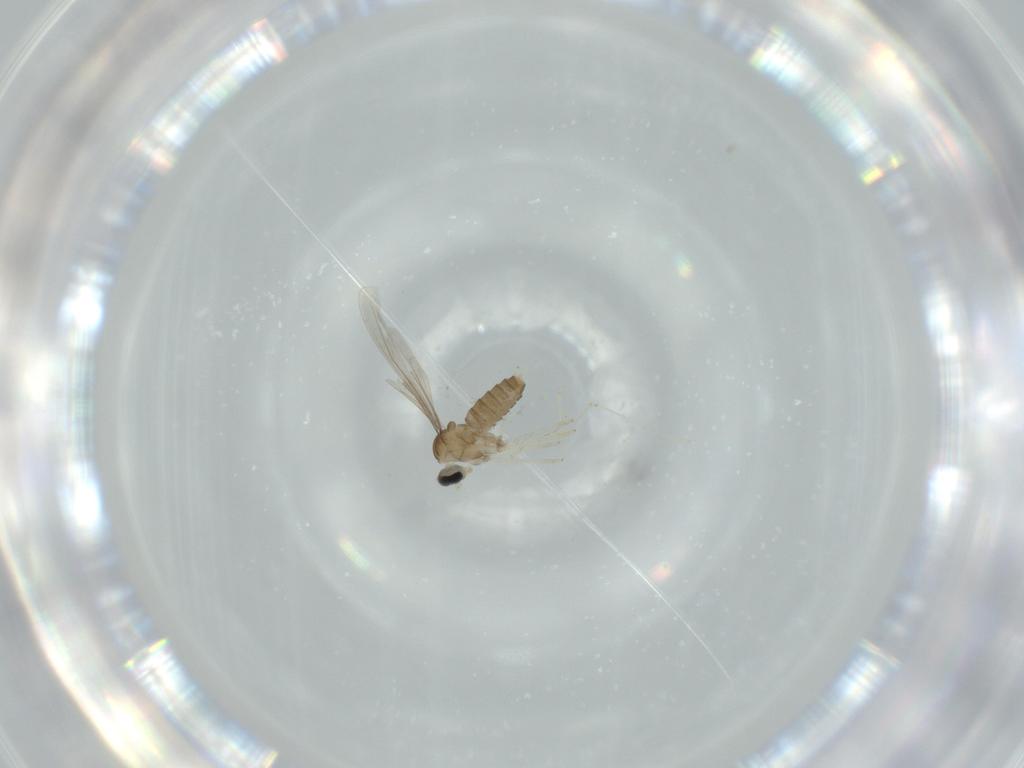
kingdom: Animalia
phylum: Arthropoda
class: Insecta
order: Diptera
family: Cecidomyiidae
